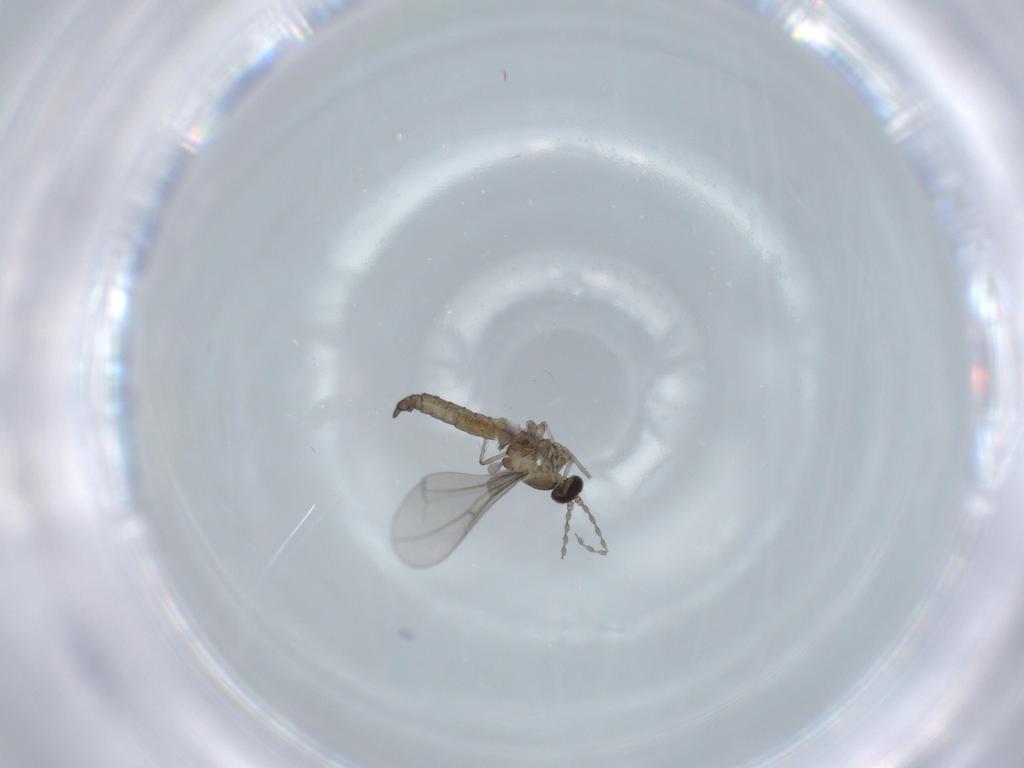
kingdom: Animalia
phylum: Arthropoda
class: Insecta
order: Diptera
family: Cecidomyiidae
